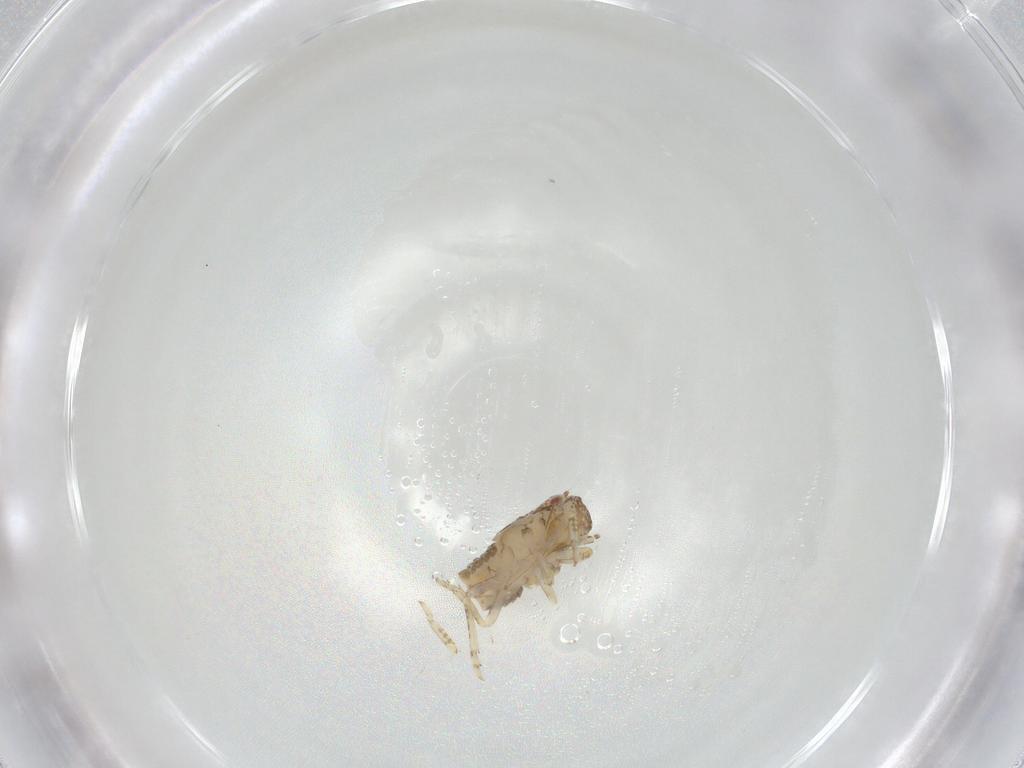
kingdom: Animalia
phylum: Arthropoda
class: Insecta
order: Hemiptera
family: Flatidae
